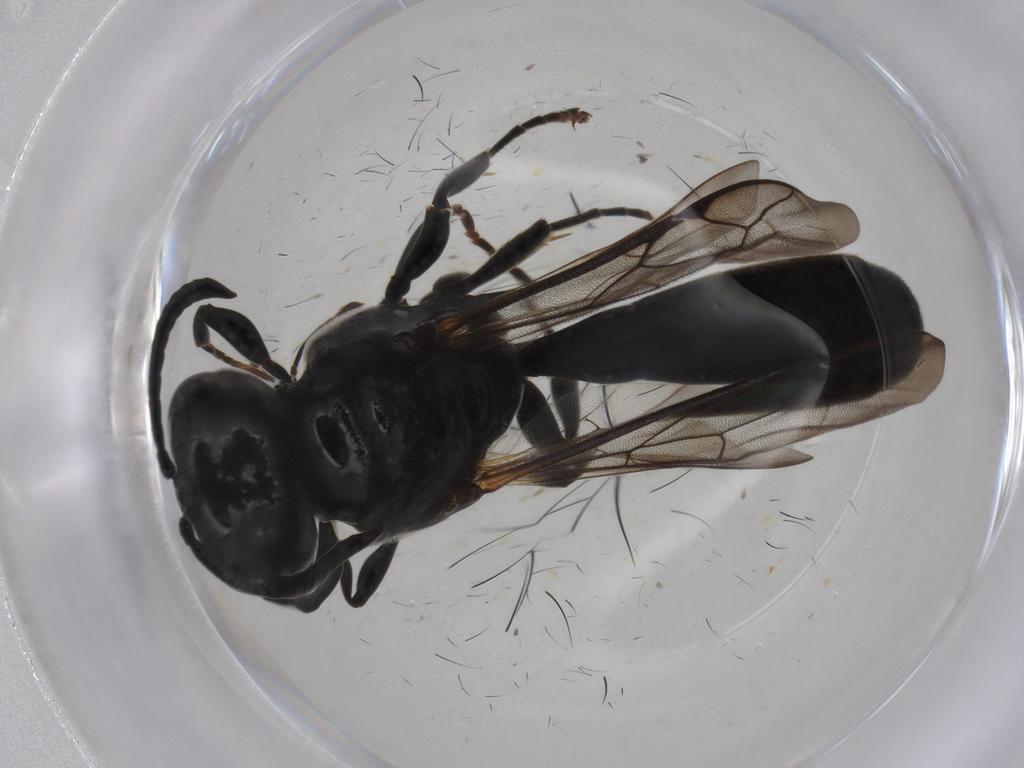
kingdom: Animalia
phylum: Arthropoda
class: Insecta
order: Hymenoptera
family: Crabronidae
